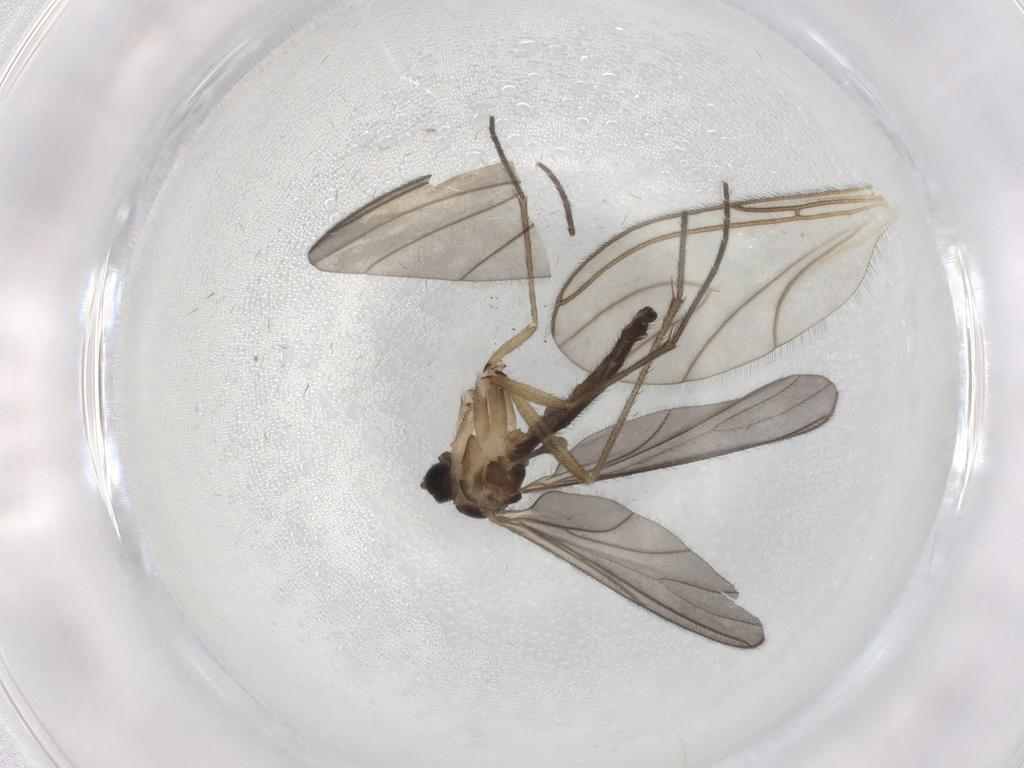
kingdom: Animalia
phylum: Arthropoda
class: Insecta
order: Diptera
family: Sciaridae
